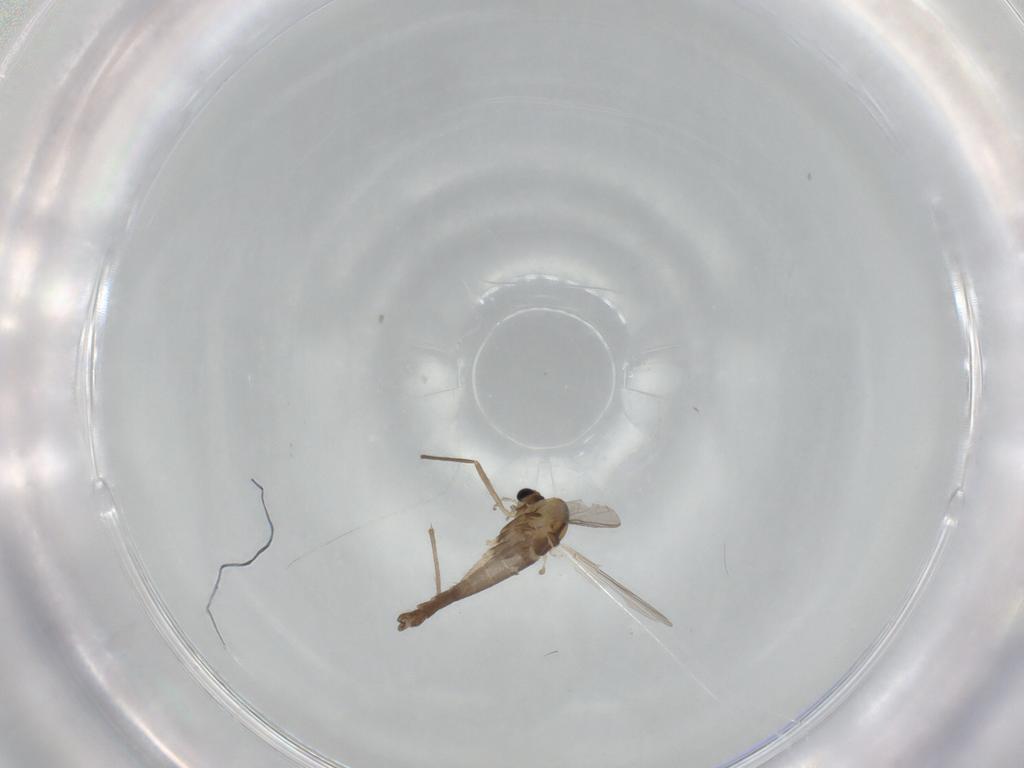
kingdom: Animalia
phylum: Arthropoda
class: Insecta
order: Diptera
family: Chironomidae
